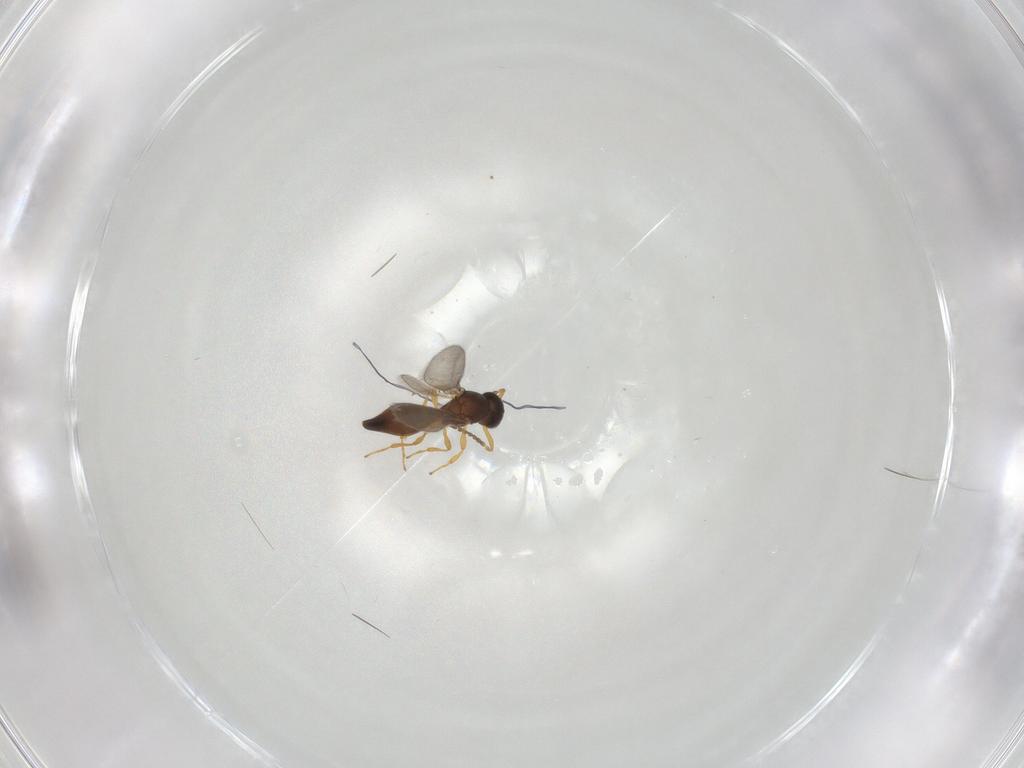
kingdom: Animalia
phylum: Arthropoda
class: Insecta
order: Hymenoptera
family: Platygastridae
